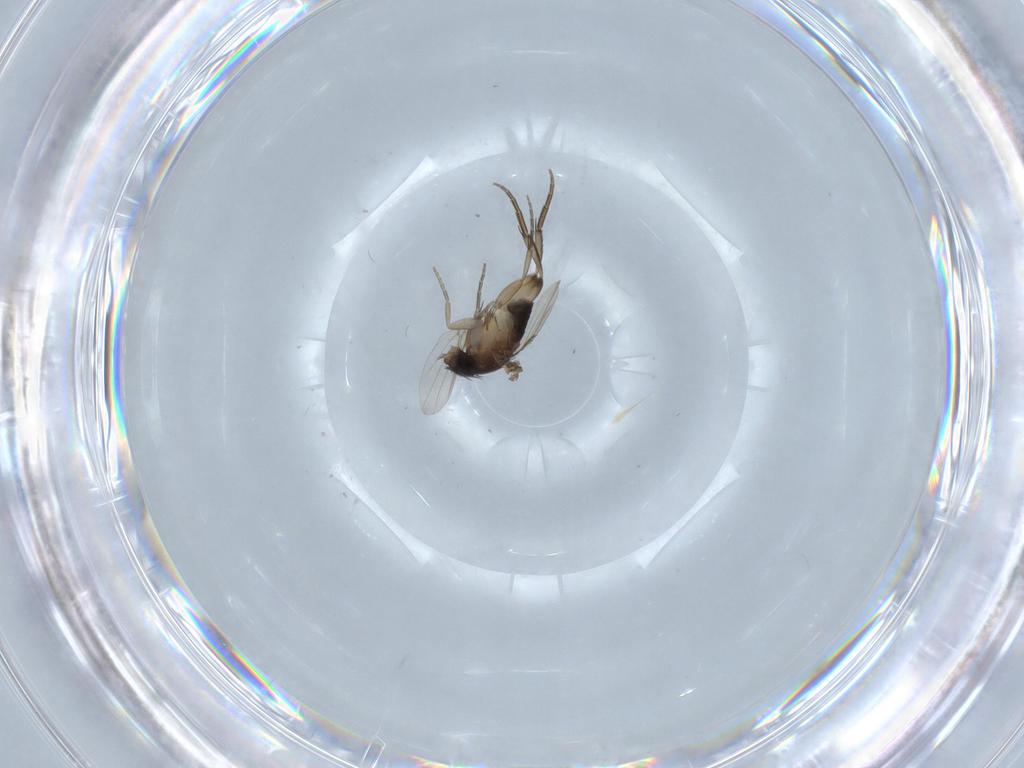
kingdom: Animalia
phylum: Arthropoda
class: Insecta
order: Diptera
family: Phoridae
